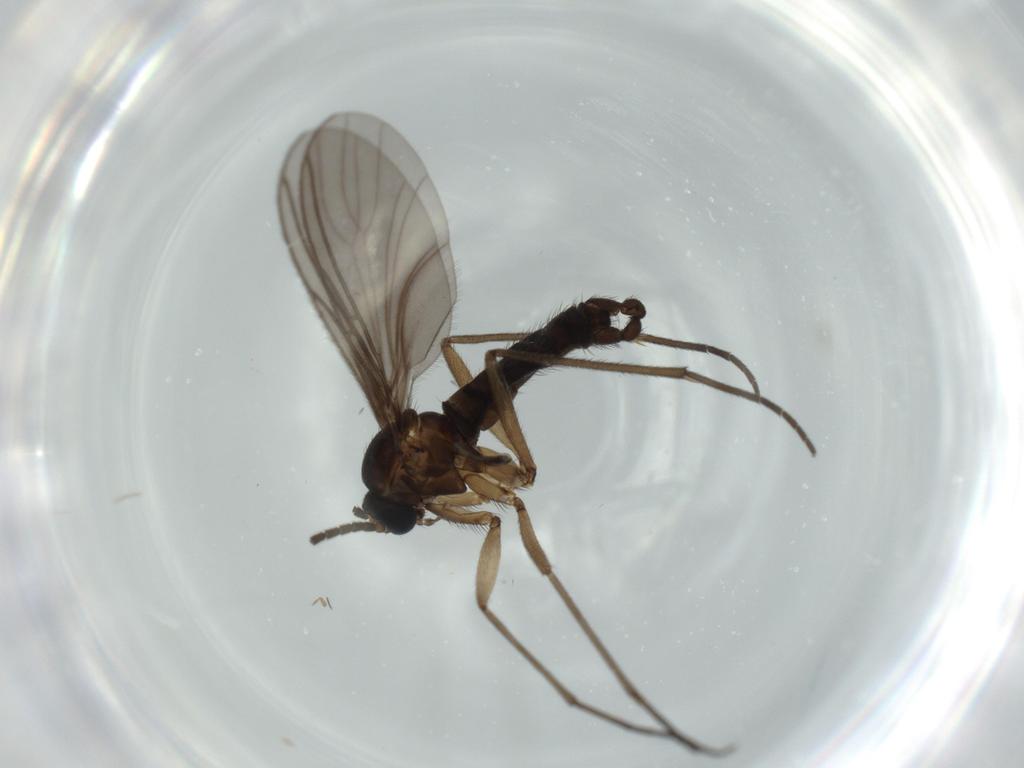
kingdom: Animalia
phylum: Arthropoda
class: Insecta
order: Diptera
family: Sciaridae
